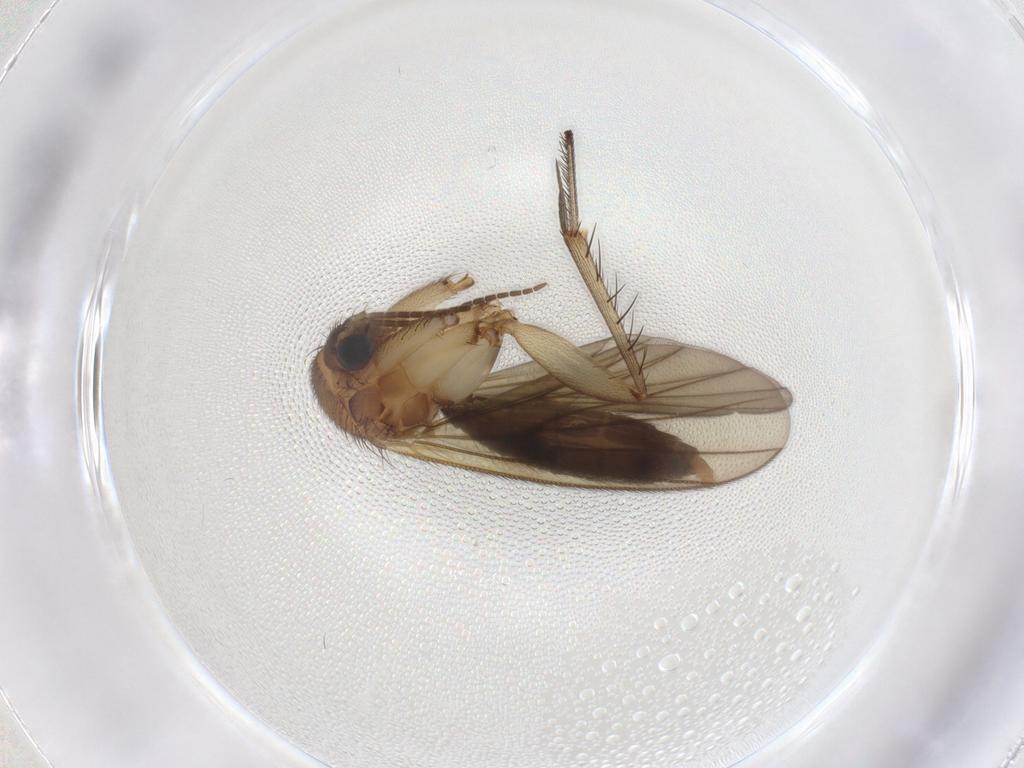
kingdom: Animalia
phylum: Arthropoda
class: Insecta
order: Diptera
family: Mycetophilidae
